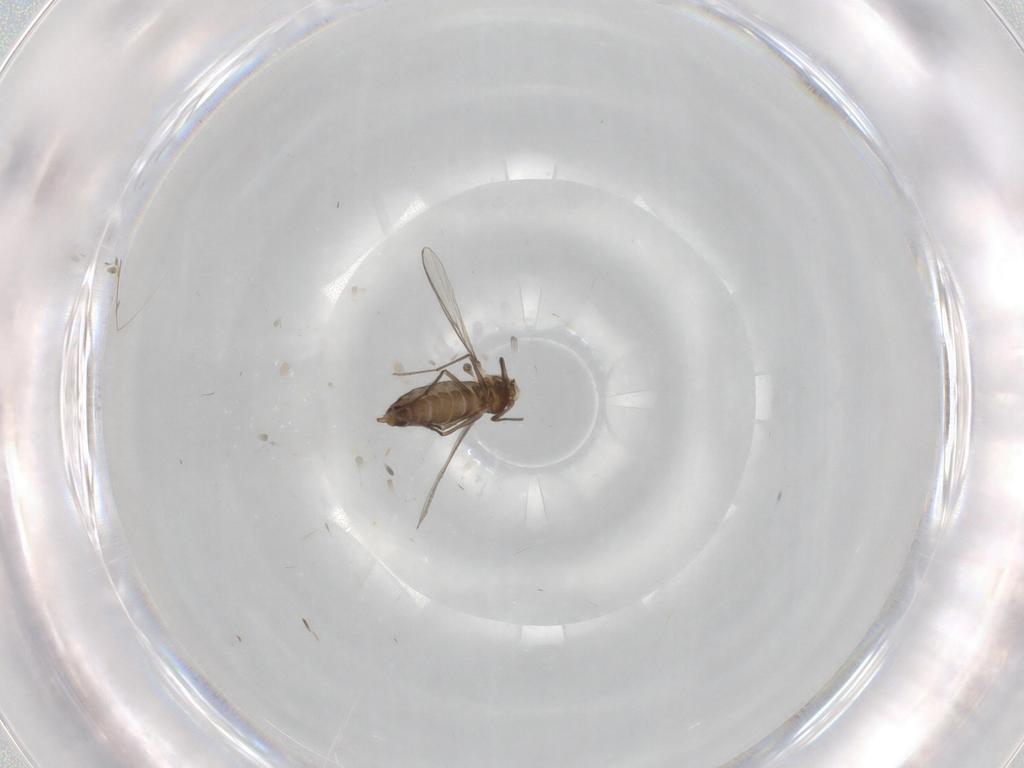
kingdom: Animalia
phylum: Arthropoda
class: Insecta
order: Diptera
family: Chironomidae
